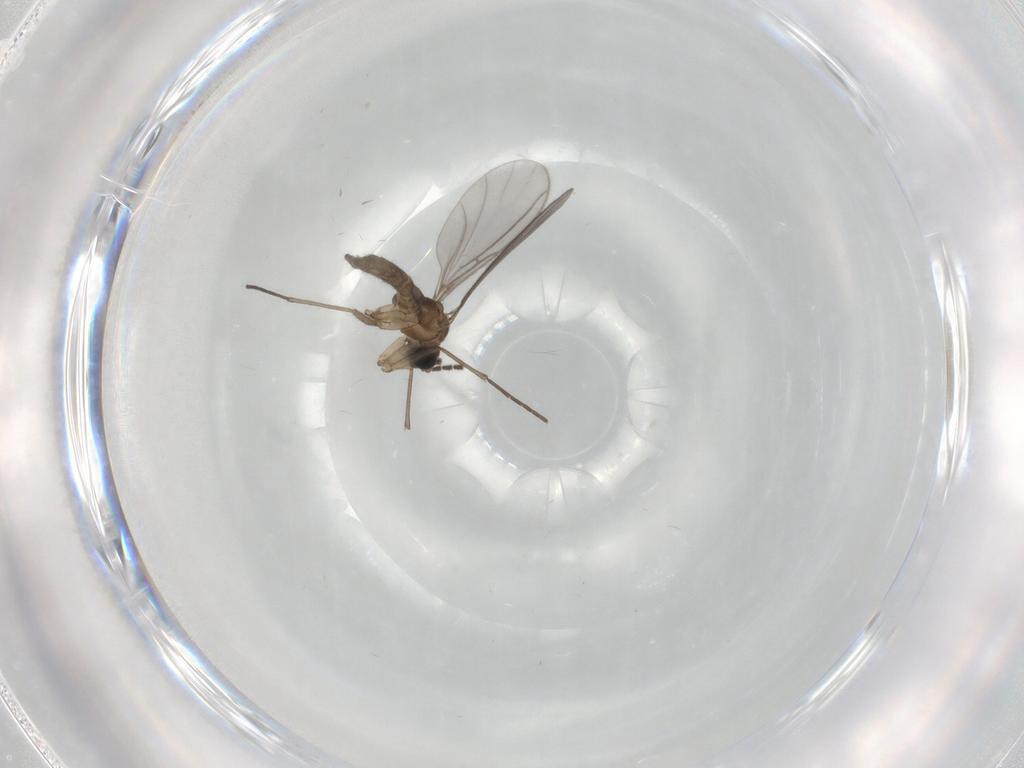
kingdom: Animalia
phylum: Arthropoda
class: Insecta
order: Diptera
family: Sciaridae
